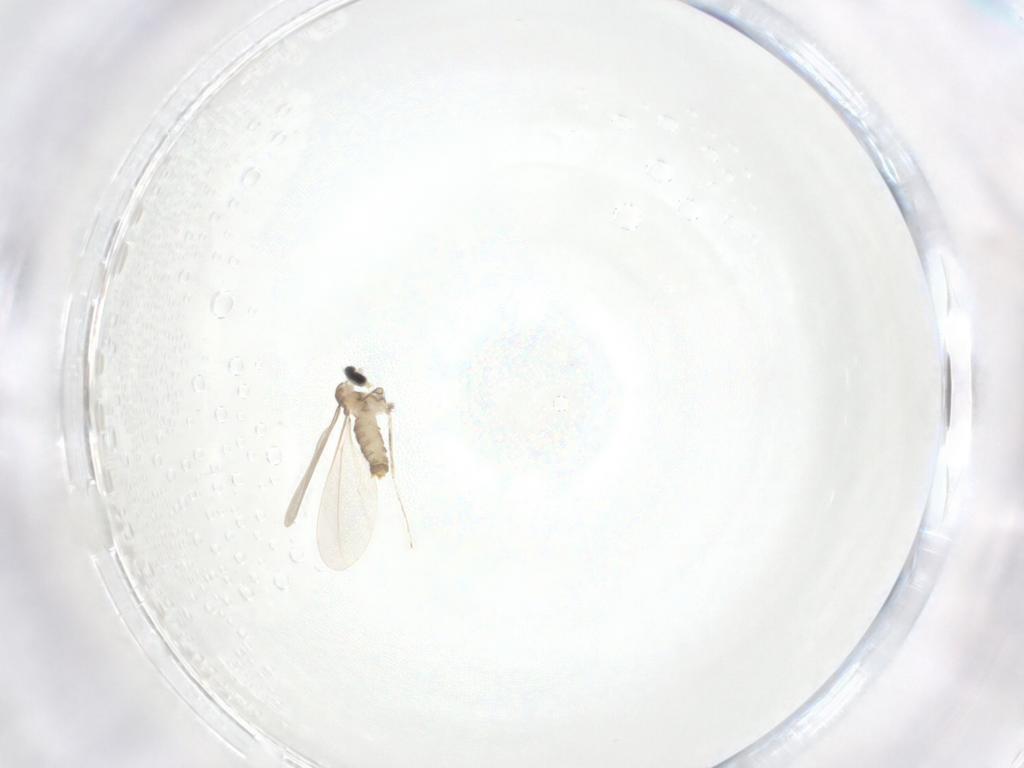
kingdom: Animalia
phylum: Arthropoda
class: Insecta
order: Diptera
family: Cecidomyiidae
